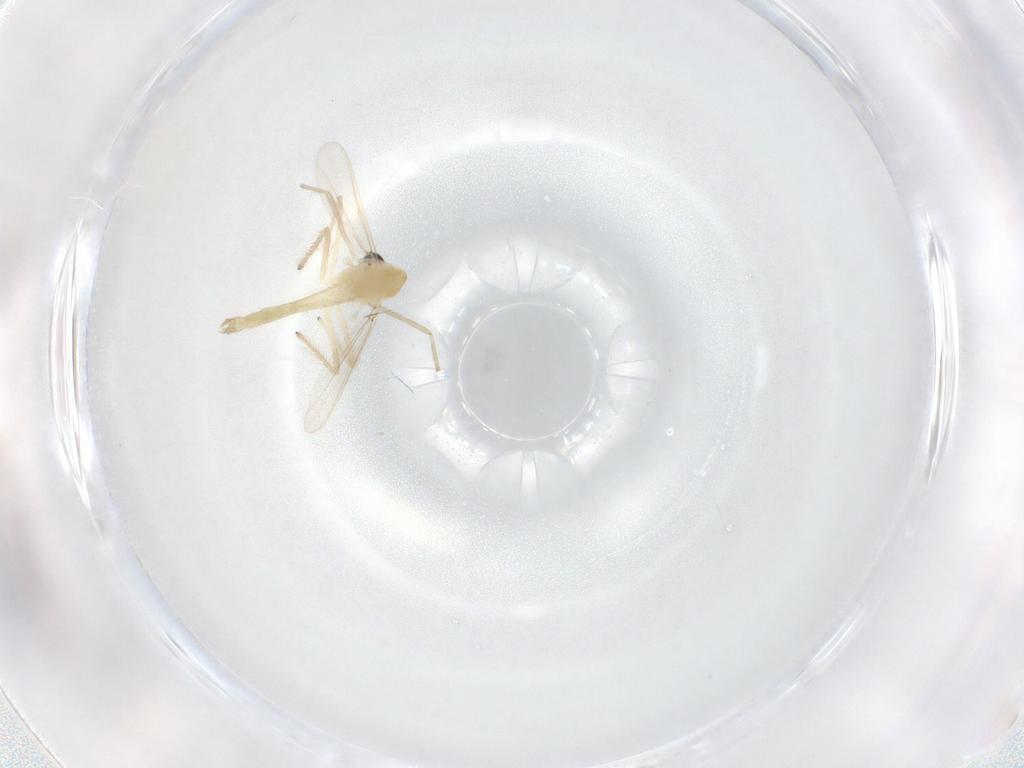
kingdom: Animalia
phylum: Arthropoda
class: Insecta
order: Diptera
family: Chironomidae
